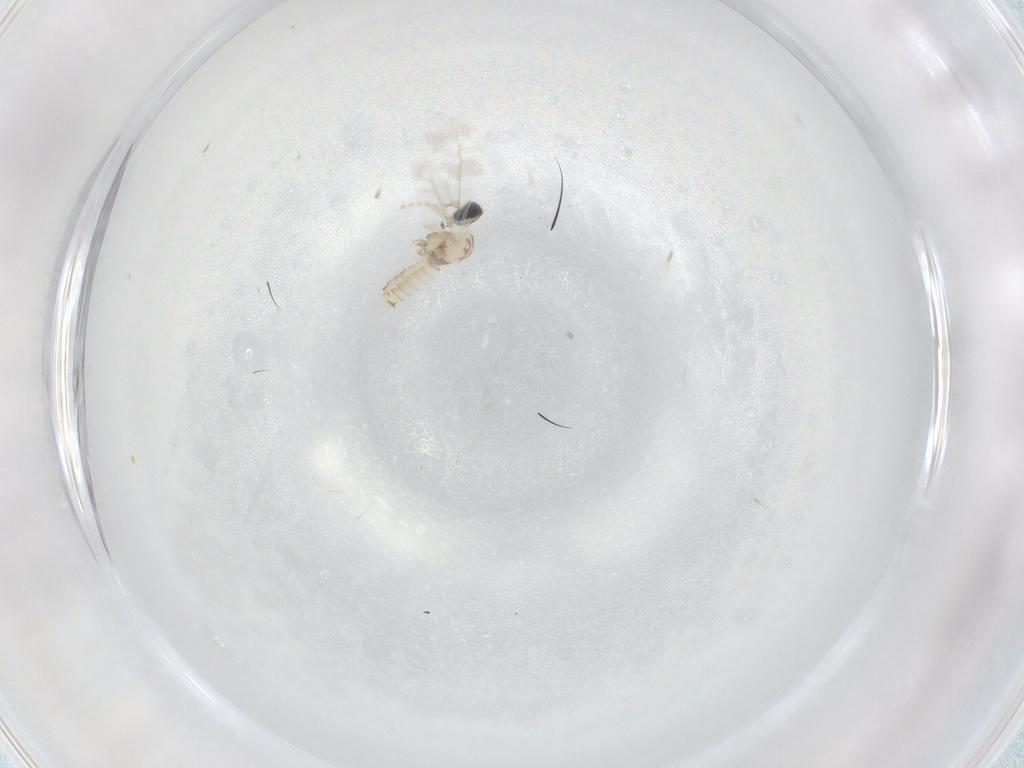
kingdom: Animalia
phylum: Arthropoda
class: Insecta
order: Diptera
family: Cecidomyiidae
